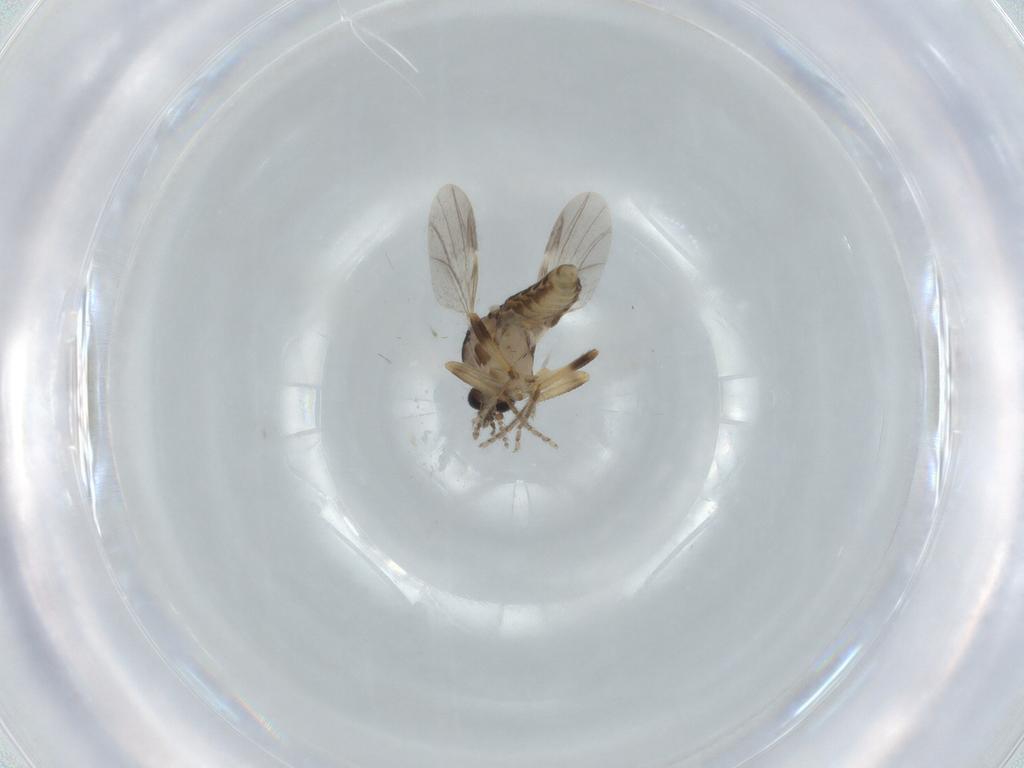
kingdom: Animalia
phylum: Arthropoda
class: Insecta
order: Diptera
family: Ceratopogonidae
